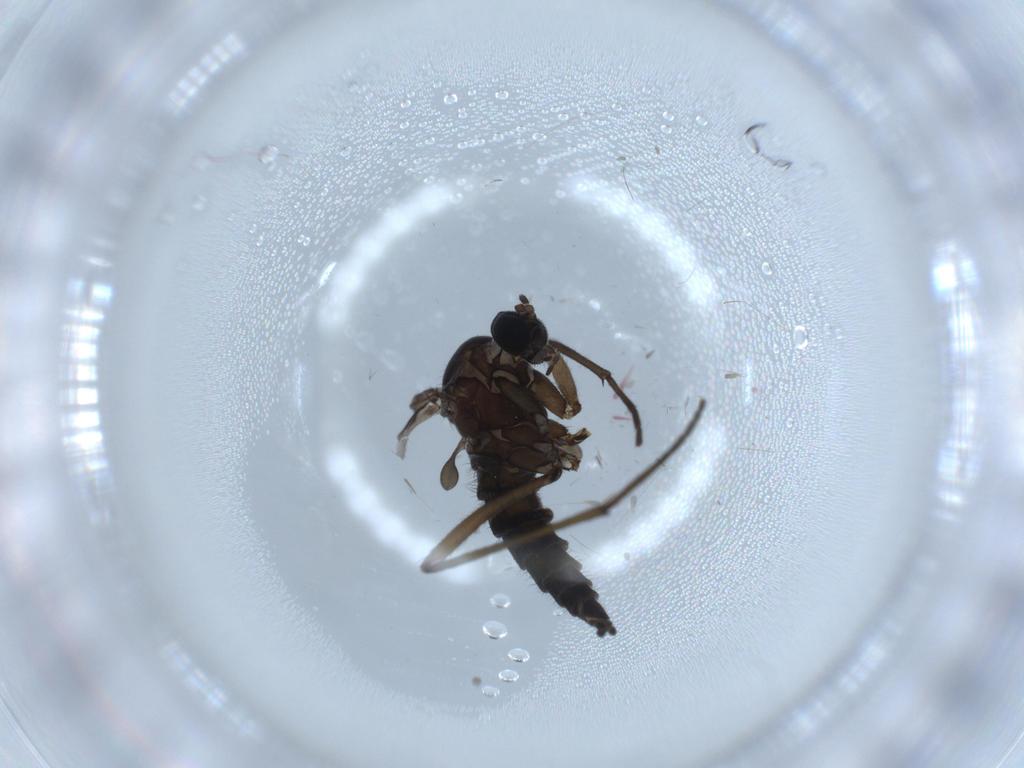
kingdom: Animalia
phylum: Arthropoda
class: Insecta
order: Diptera
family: Sciaridae
